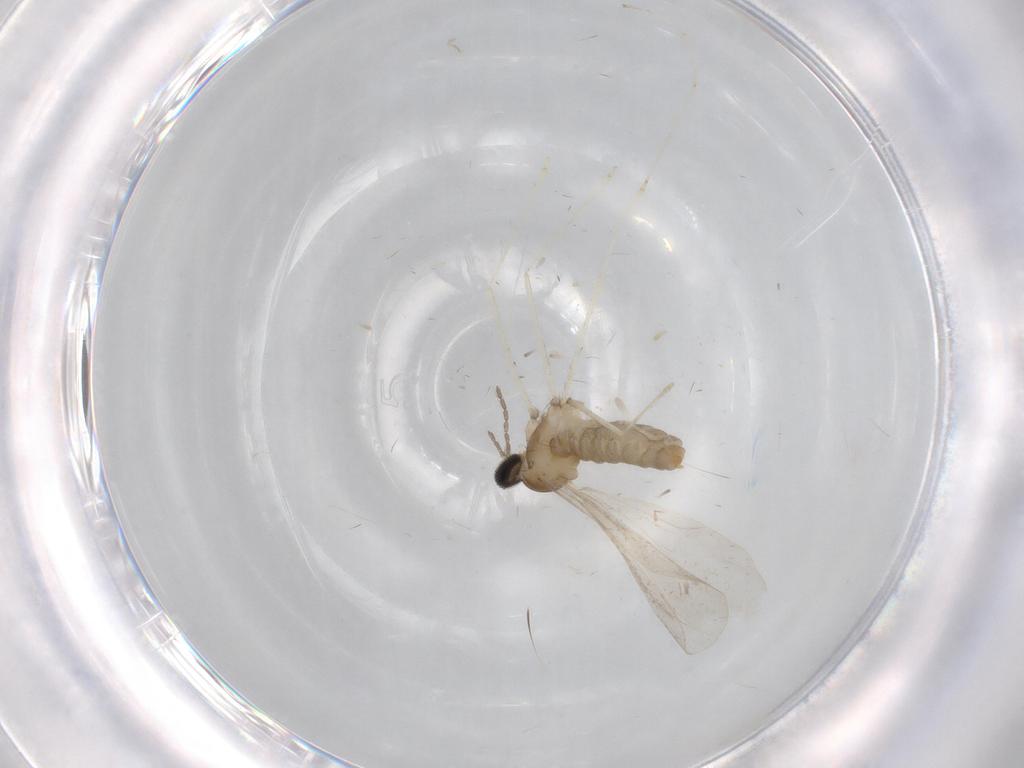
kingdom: Animalia
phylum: Arthropoda
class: Insecta
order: Diptera
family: Cecidomyiidae
